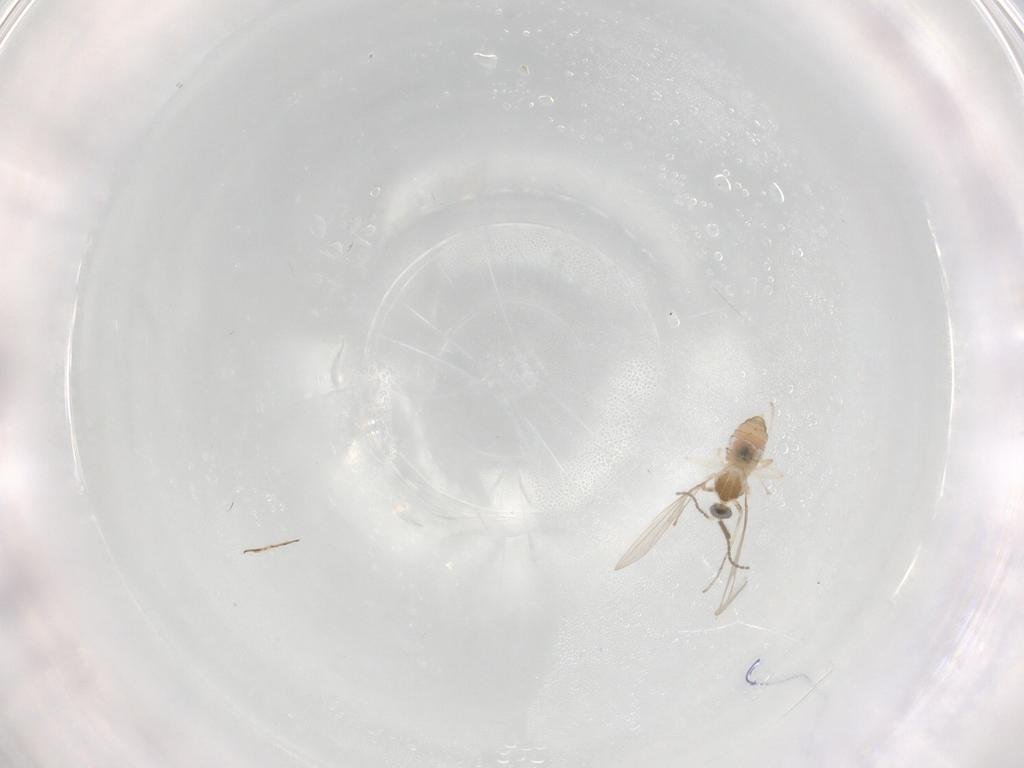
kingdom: Animalia
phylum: Arthropoda
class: Insecta
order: Diptera
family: Cecidomyiidae
